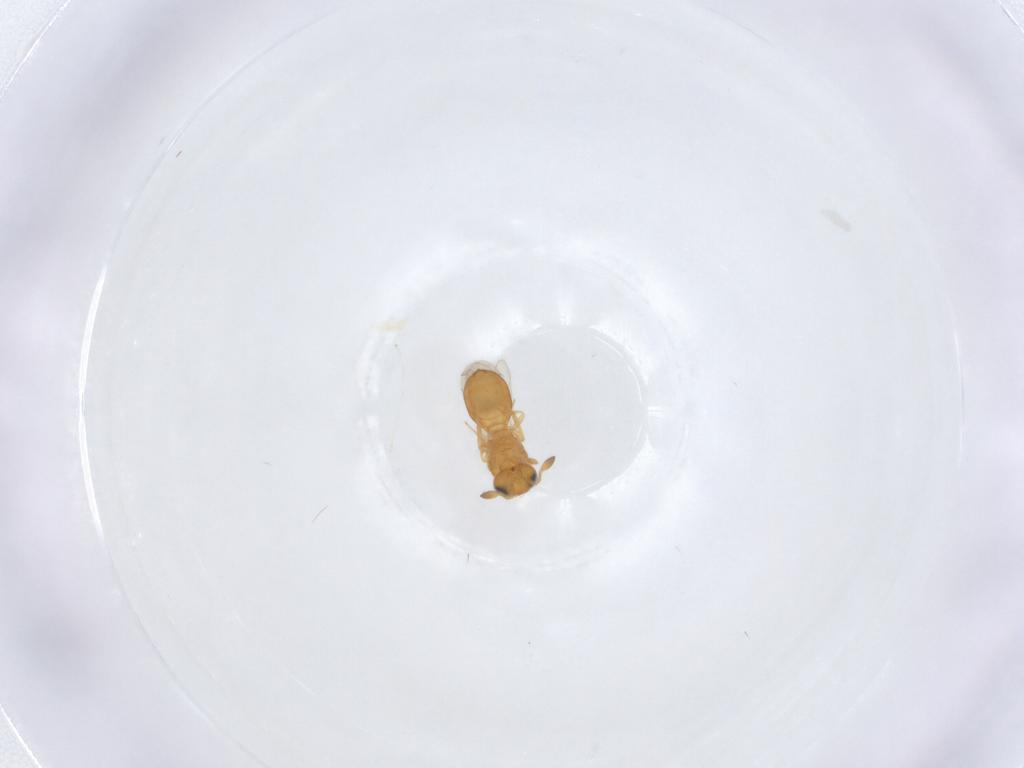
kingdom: Animalia
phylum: Arthropoda
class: Insecta
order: Hymenoptera
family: Scelionidae
